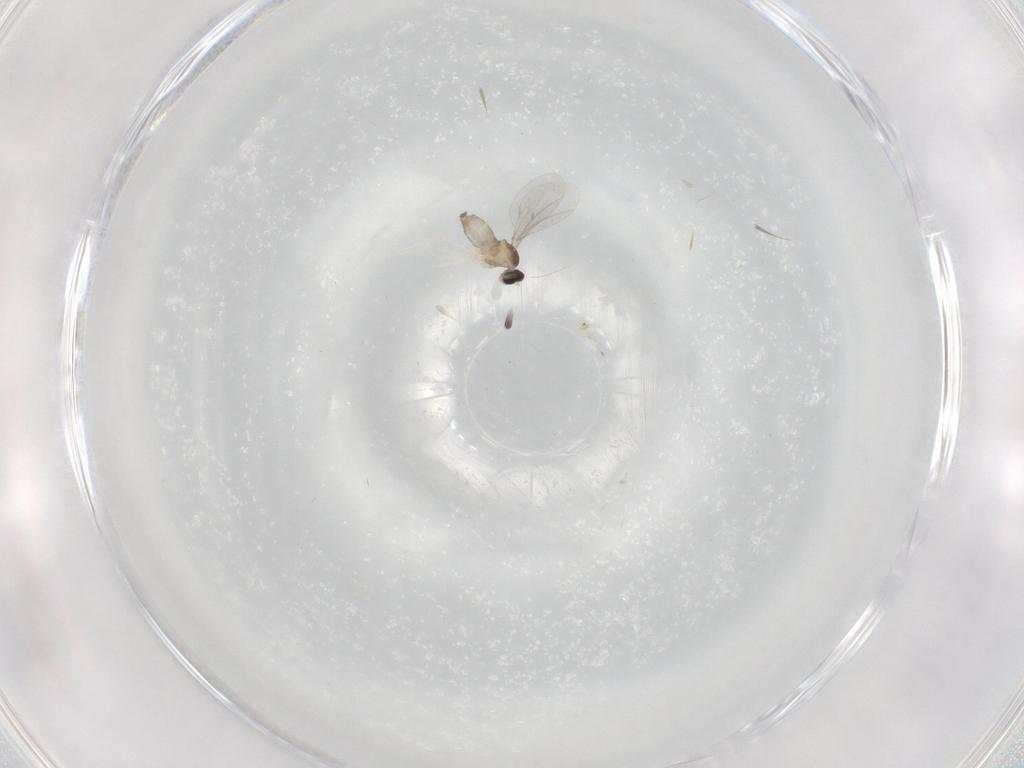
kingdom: Animalia
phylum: Arthropoda
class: Insecta
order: Diptera
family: Cecidomyiidae
